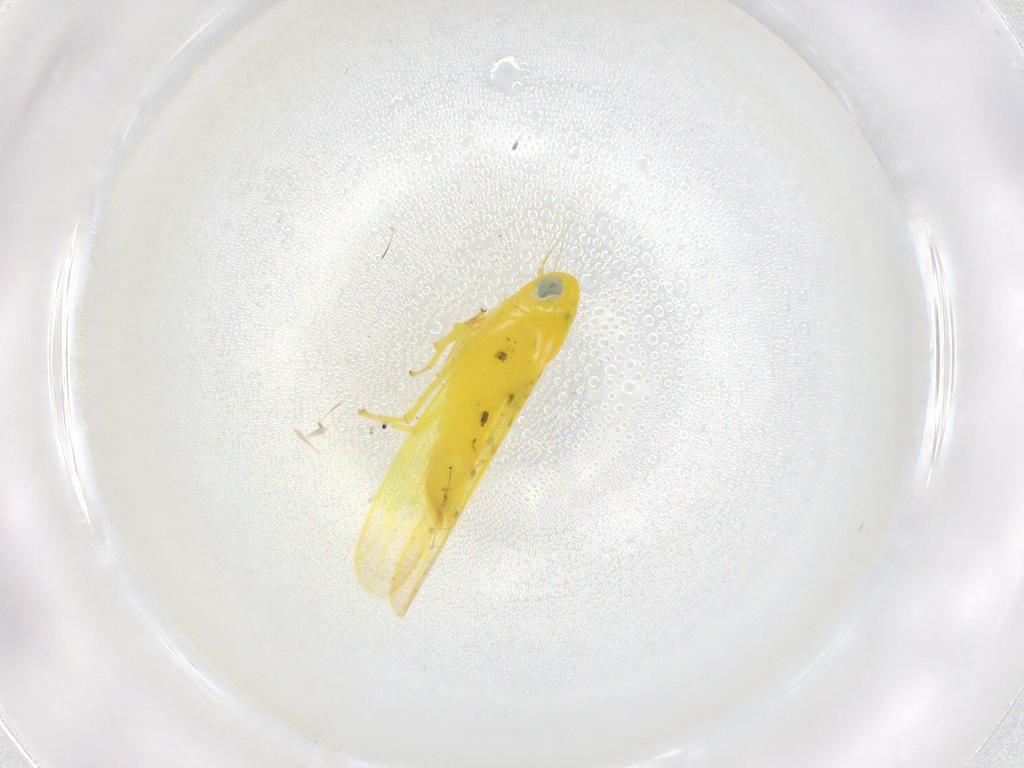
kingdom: Animalia
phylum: Arthropoda
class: Insecta
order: Hemiptera
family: Cicadellidae
